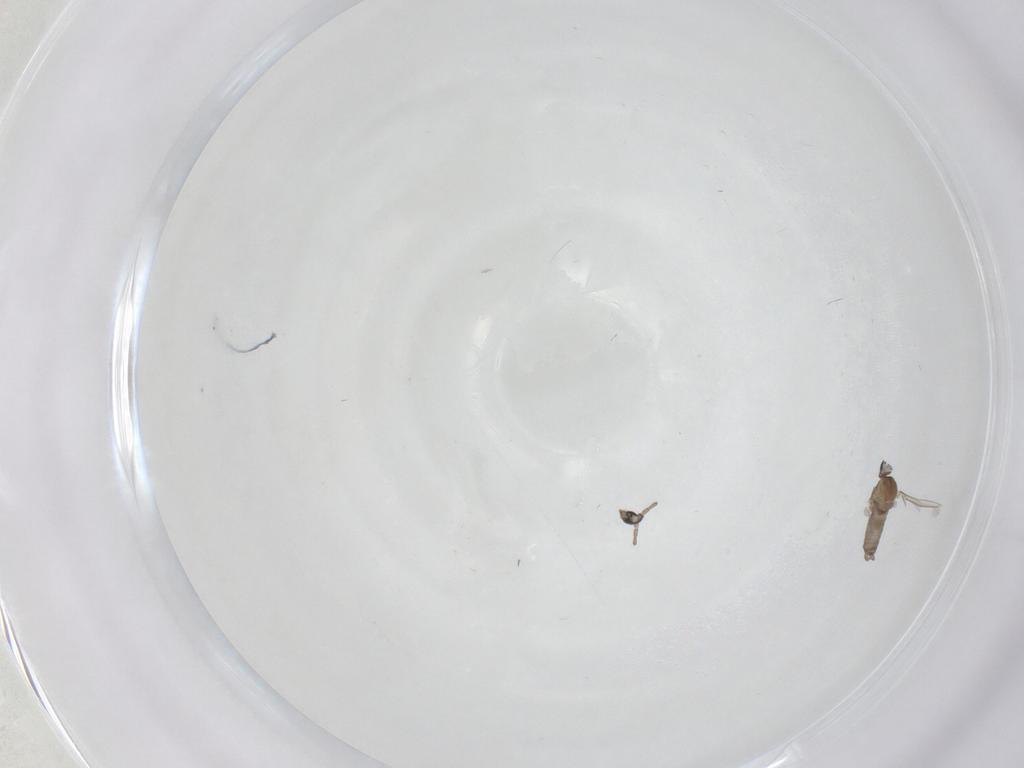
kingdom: Animalia
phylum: Arthropoda
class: Insecta
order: Diptera
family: Cecidomyiidae
